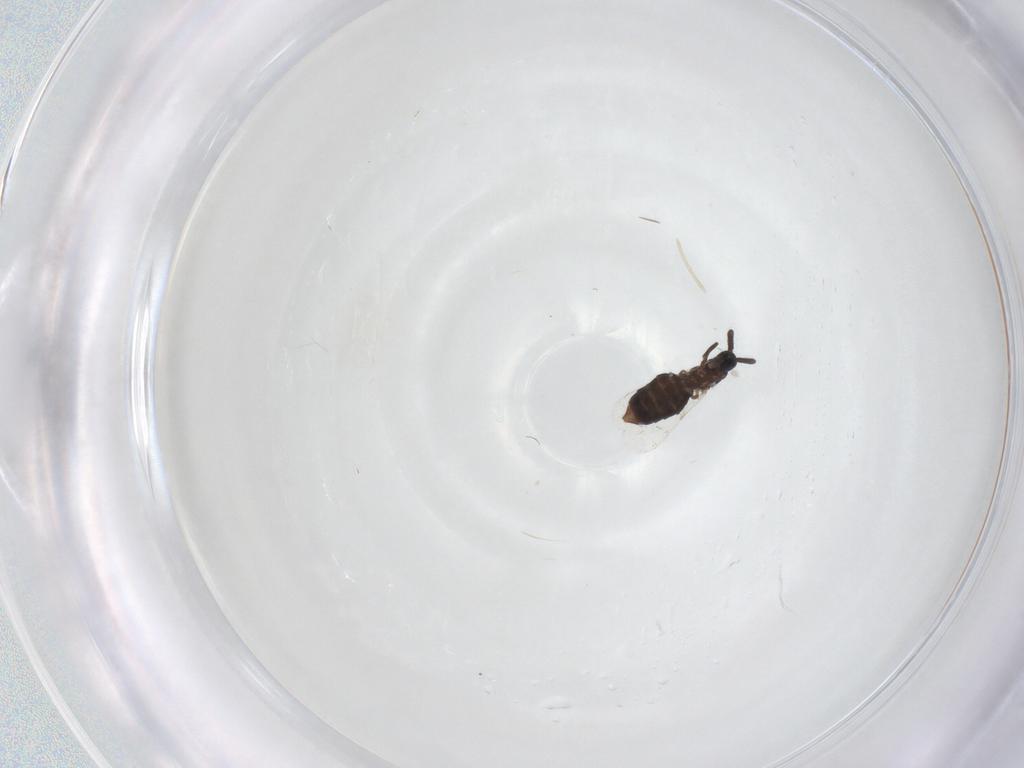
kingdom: Animalia
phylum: Arthropoda
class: Insecta
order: Diptera
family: Scatopsidae
